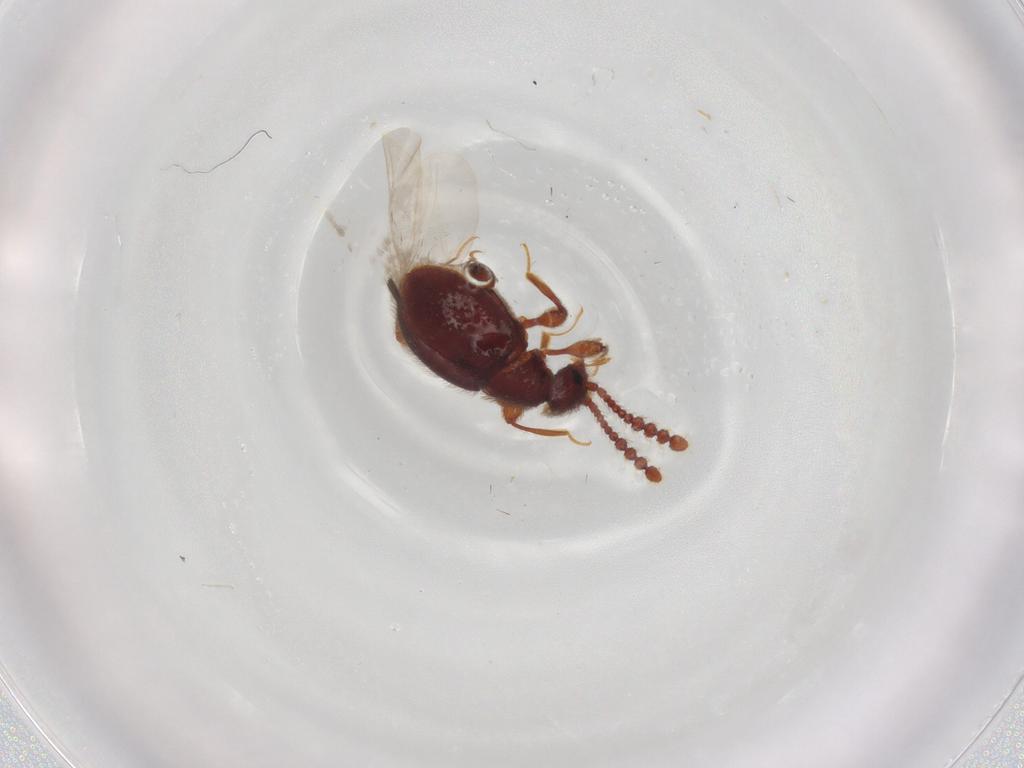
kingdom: Animalia
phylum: Arthropoda
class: Insecta
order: Coleoptera
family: Staphylinidae
